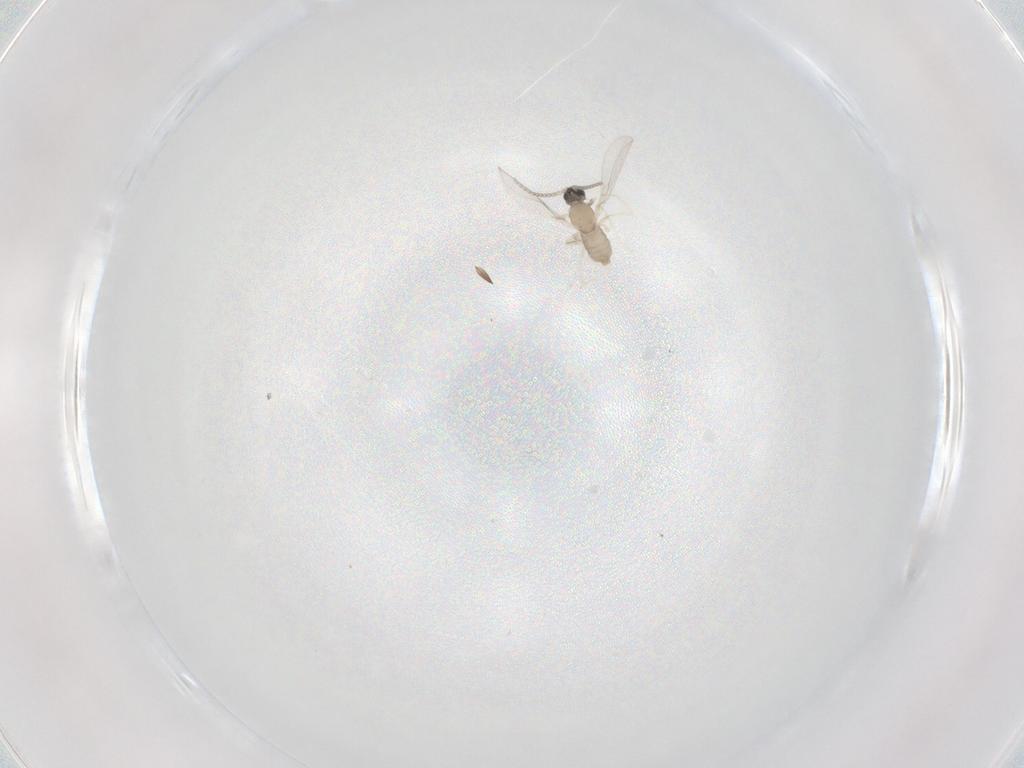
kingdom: Animalia
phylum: Arthropoda
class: Insecta
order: Diptera
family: Cecidomyiidae
